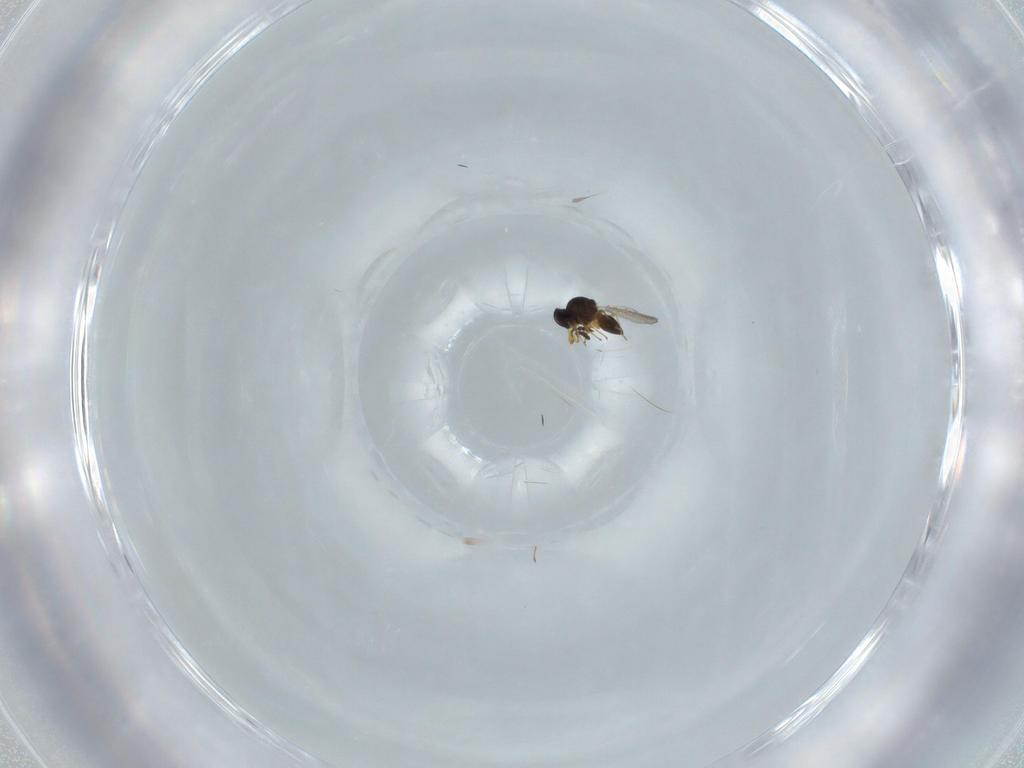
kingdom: Animalia
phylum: Arthropoda
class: Insecta
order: Hymenoptera
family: Platygastridae
